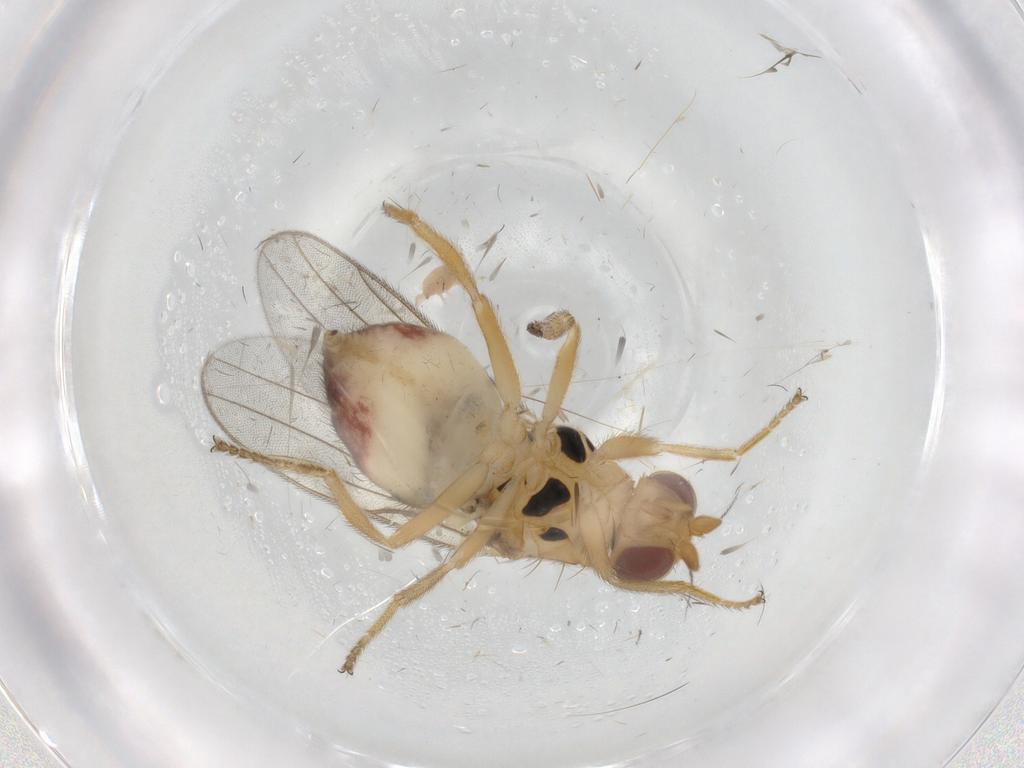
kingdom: Animalia
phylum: Arthropoda
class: Insecta
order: Diptera
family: Chloropidae
